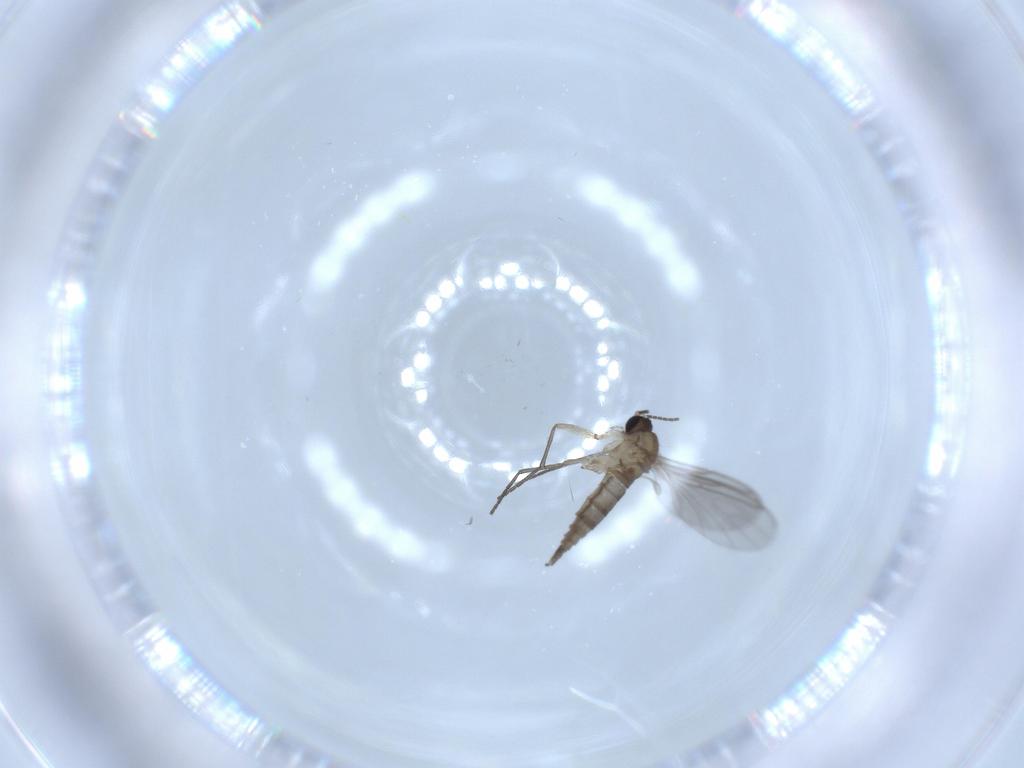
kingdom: Animalia
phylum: Arthropoda
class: Insecta
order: Diptera
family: Sciaridae
